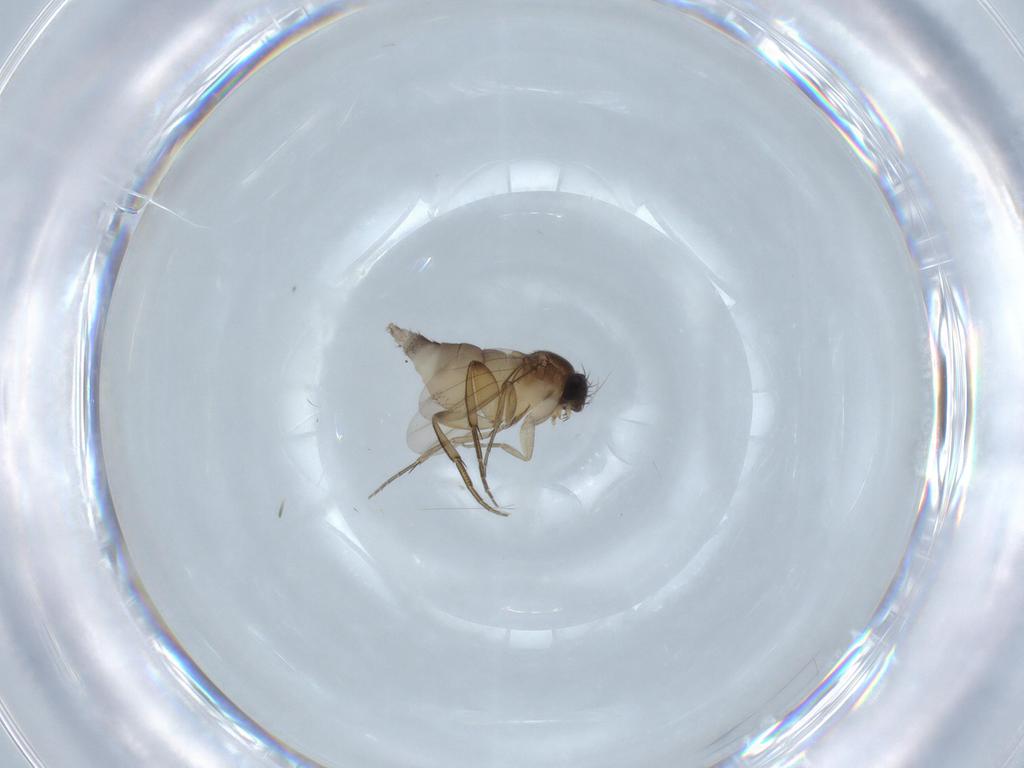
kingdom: Animalia
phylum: Arthropoda
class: Insecta
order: Diptera
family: Phoridae
